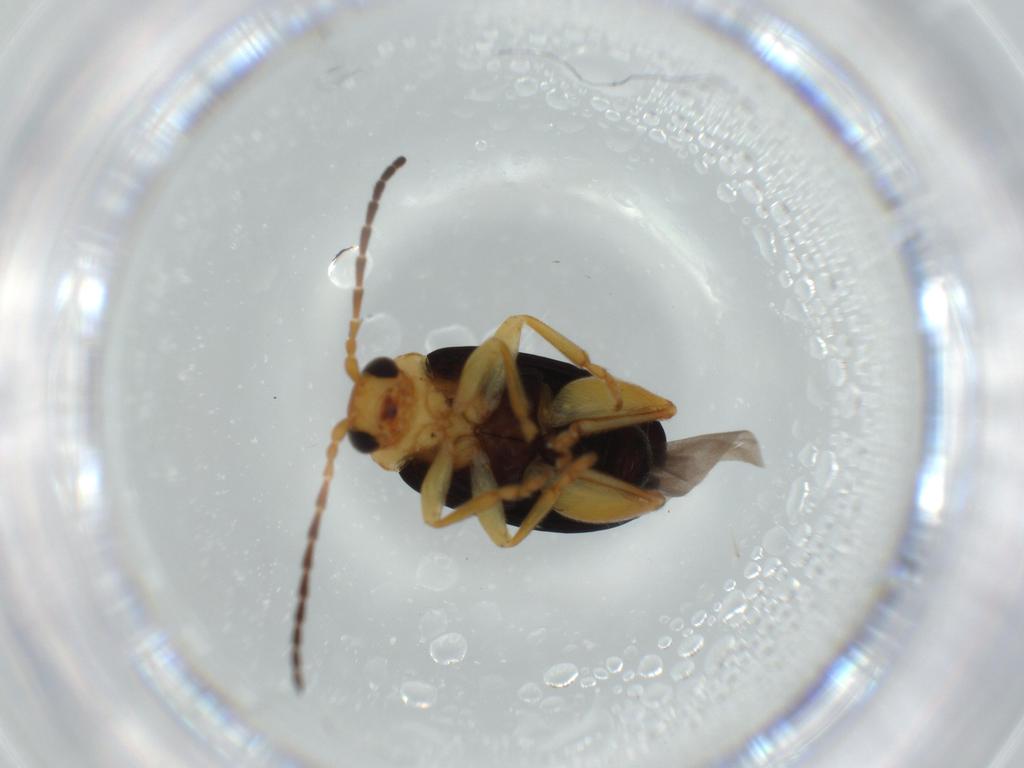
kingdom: Animalia
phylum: Arthropoda
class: Insecta
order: Coleoptera
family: Chrysomelidae
